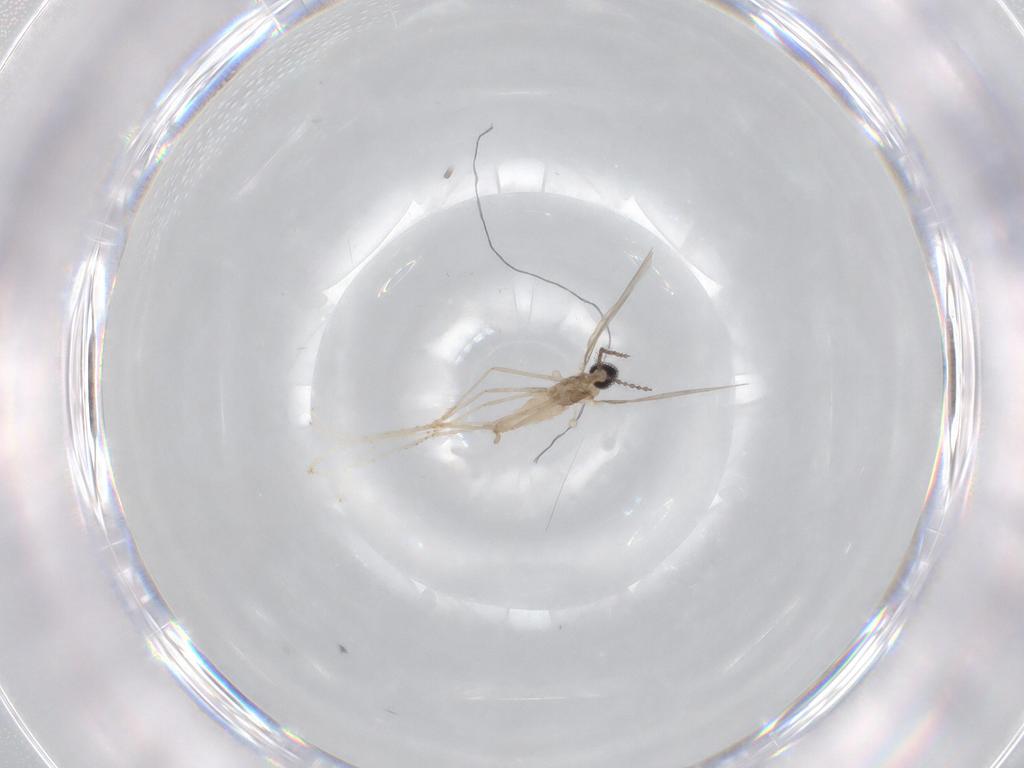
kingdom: Animalia
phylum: Arthropoda
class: Insecta
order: Diptera
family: Cecidomyiidae
